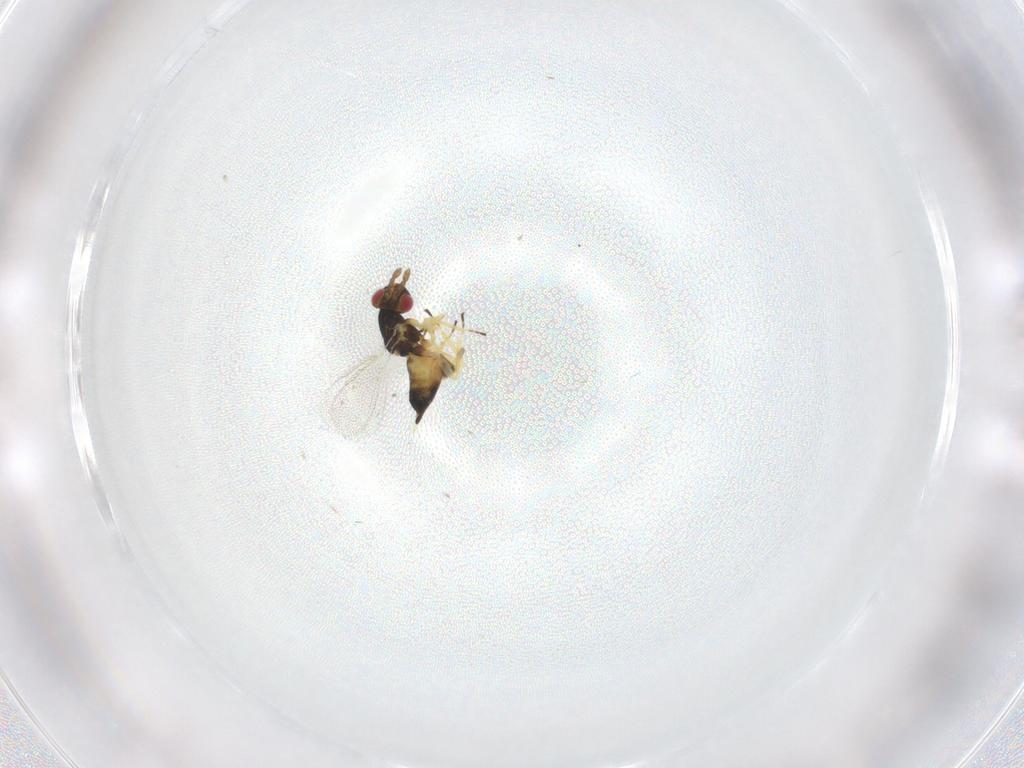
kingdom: Animalia
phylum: Arthropoda
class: Insecta
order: Hymenoptera
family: Eulophidae
